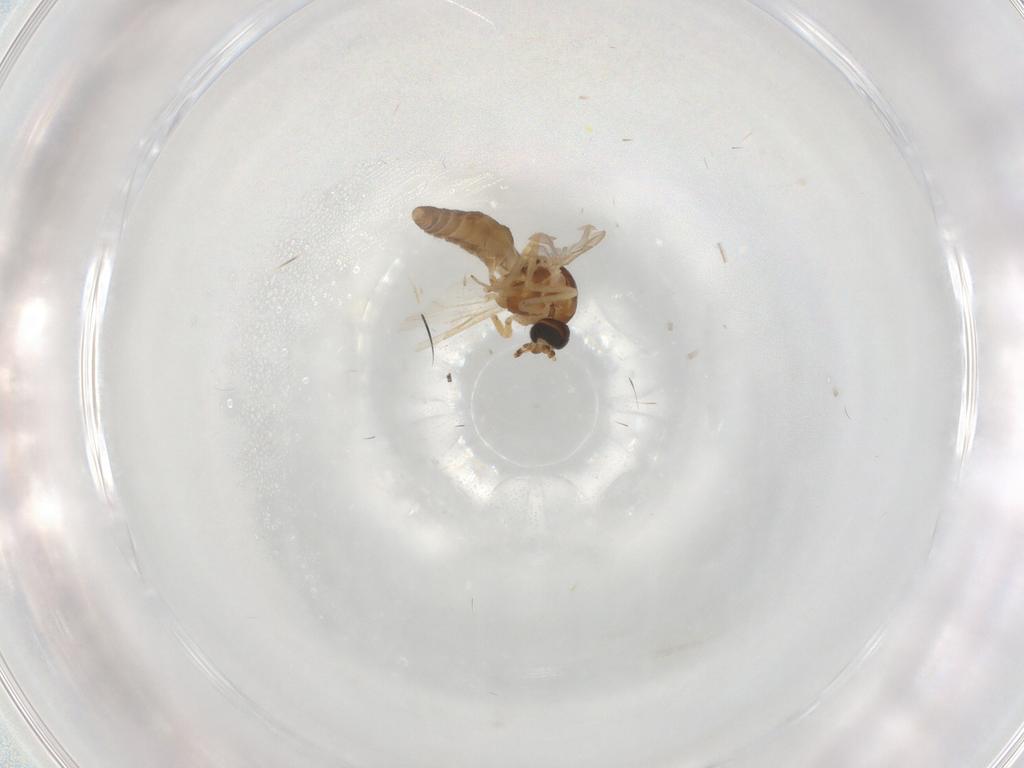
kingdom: Animalia
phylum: Arthropoda
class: Insecta
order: Diptera
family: Ceratopogonidae
